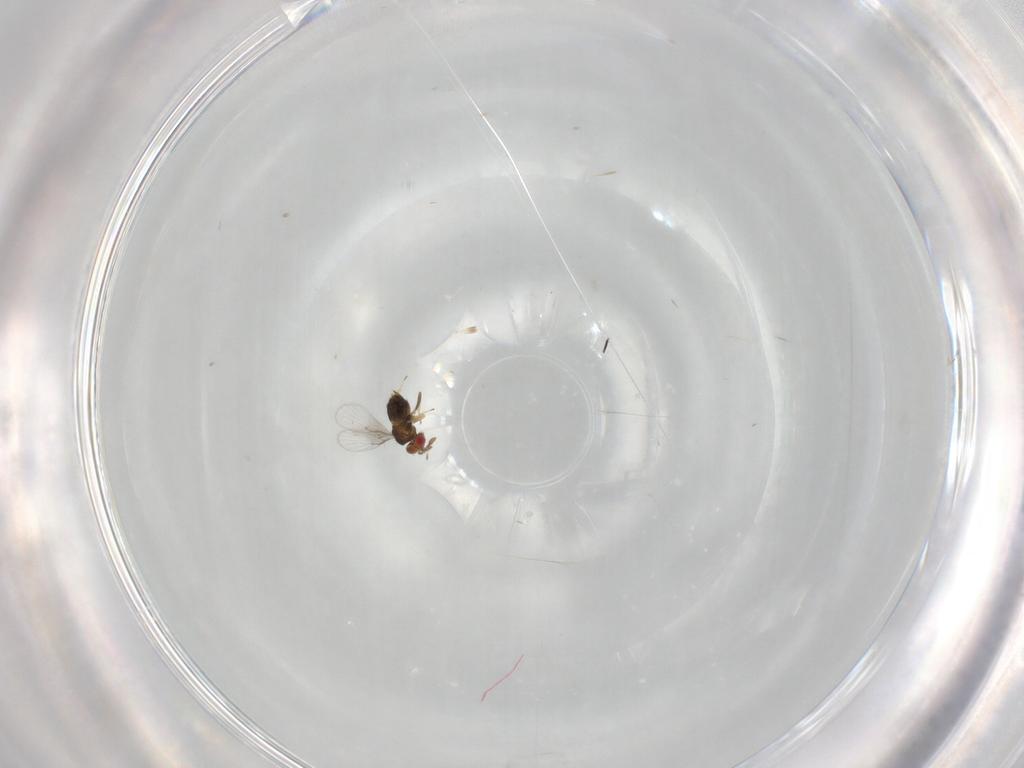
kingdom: Animalia
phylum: Arthropoda
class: Insecta
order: Hymenoptera
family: Trichogrammatidae
